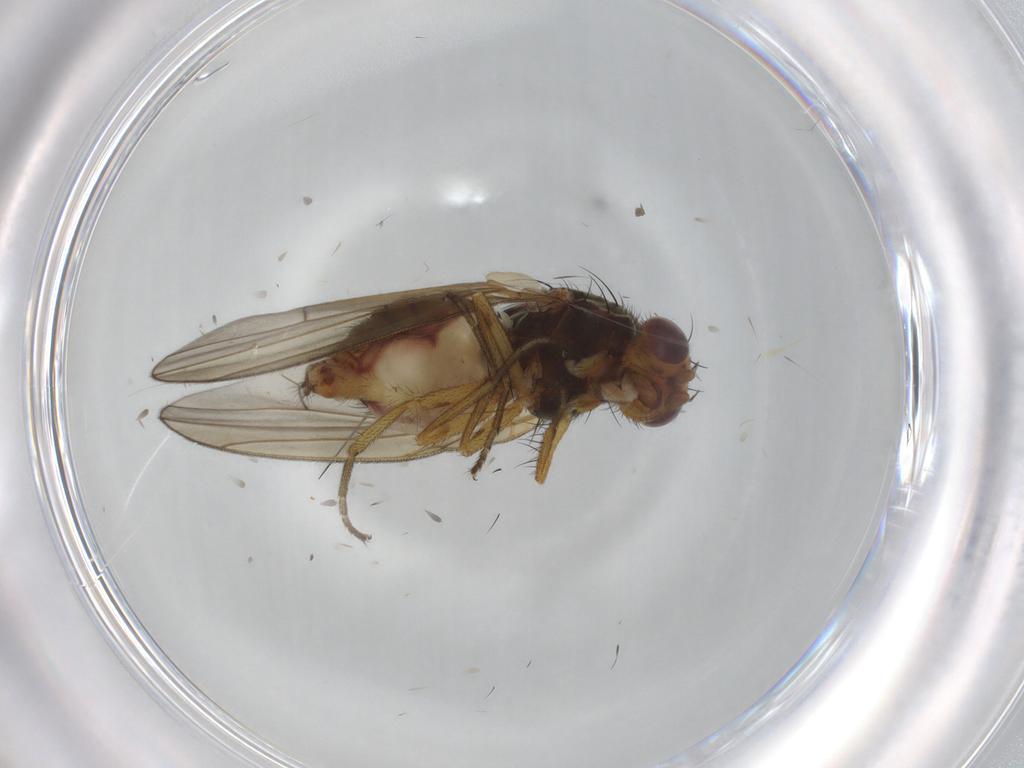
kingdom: Animalia
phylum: Arthropoda
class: Insecta
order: Diptera
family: Lauxaniidae
